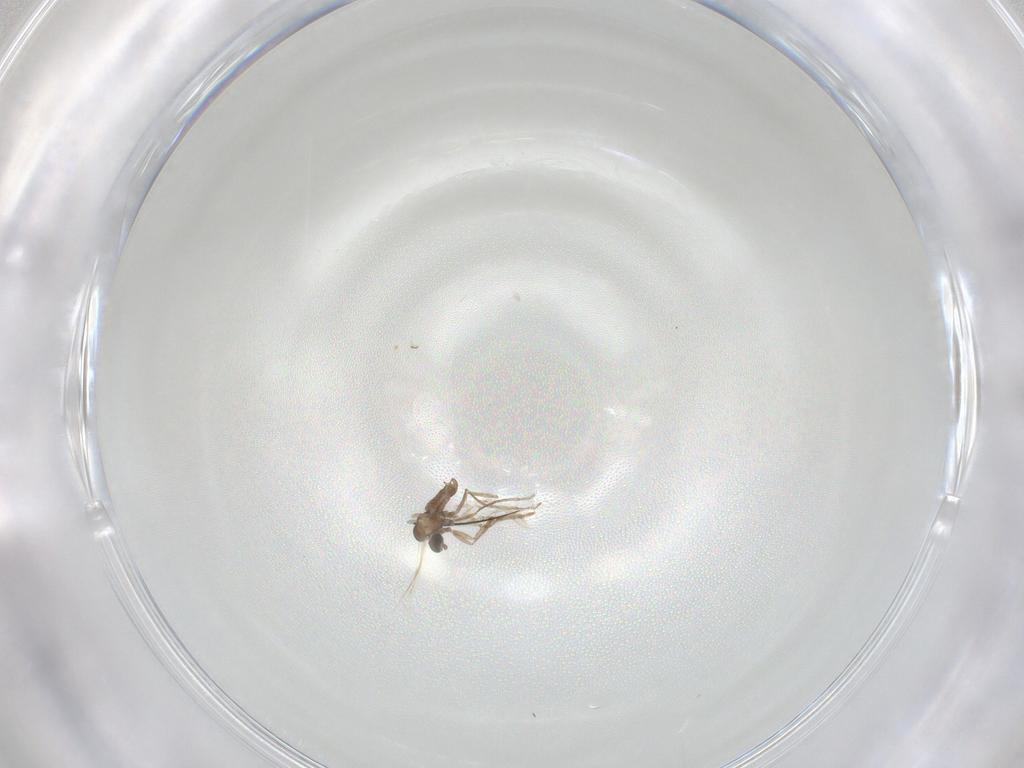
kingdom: Animalia
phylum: Arthropoda
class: Insecta
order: Diptera
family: Cecidomyiidae
